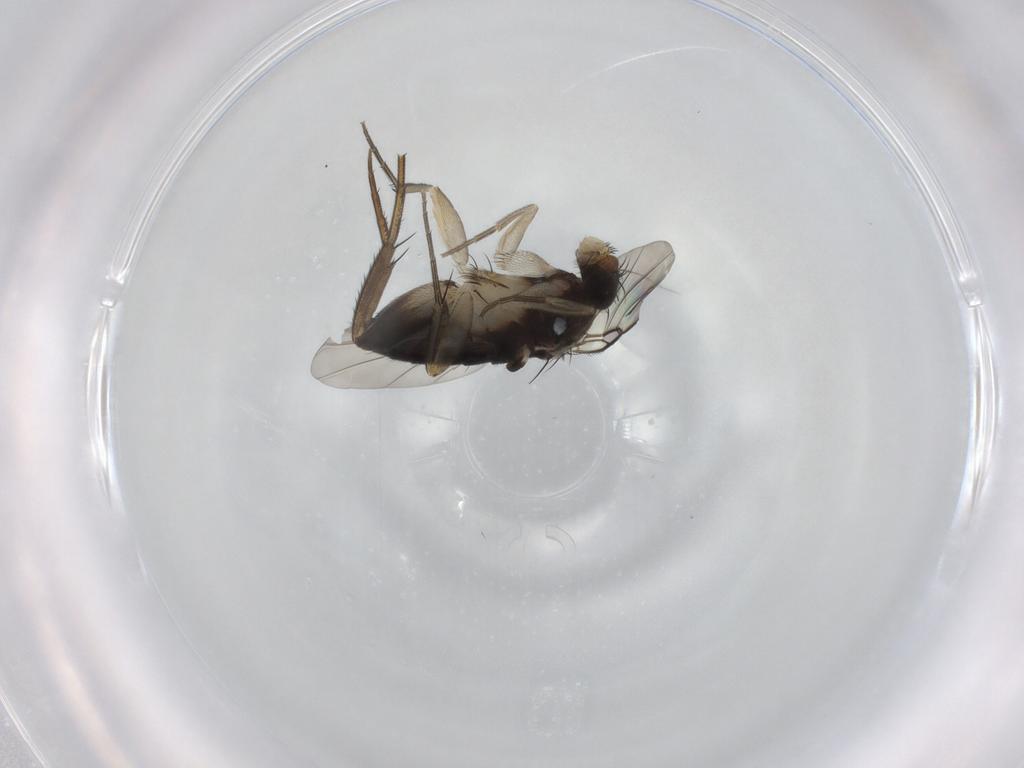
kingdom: Animalia
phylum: Arthropoda
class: Insecta
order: Diptera
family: Phoridae
